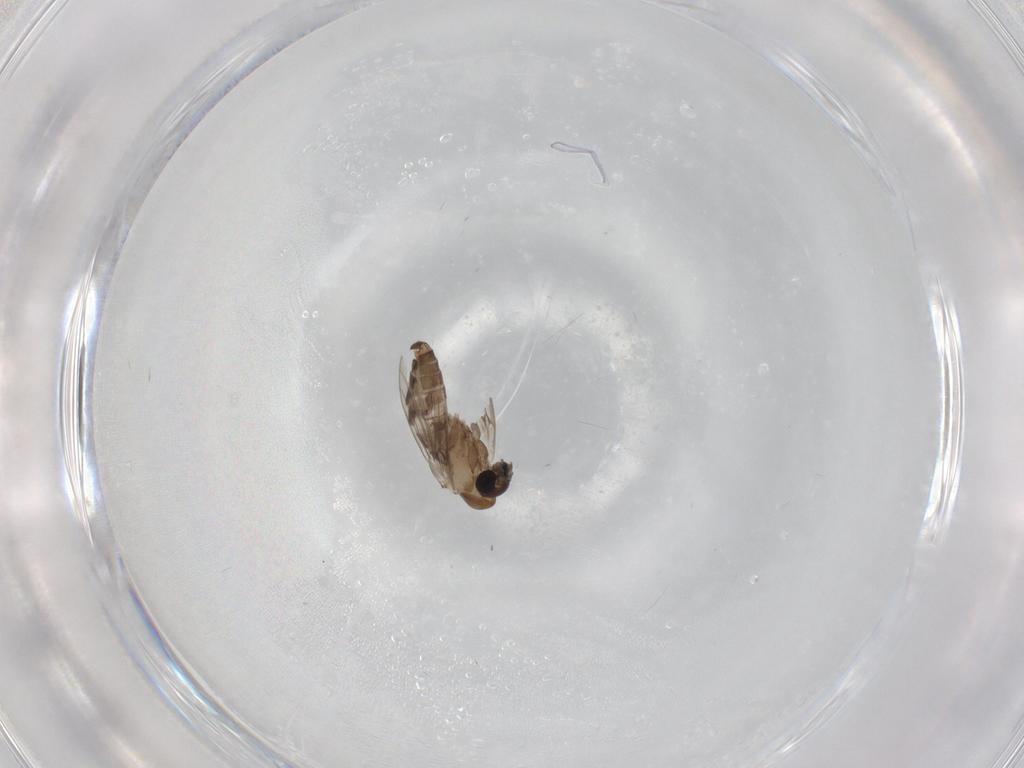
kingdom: Animalia
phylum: Arthropoda
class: Insecta
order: Diptera
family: Psychodidae
